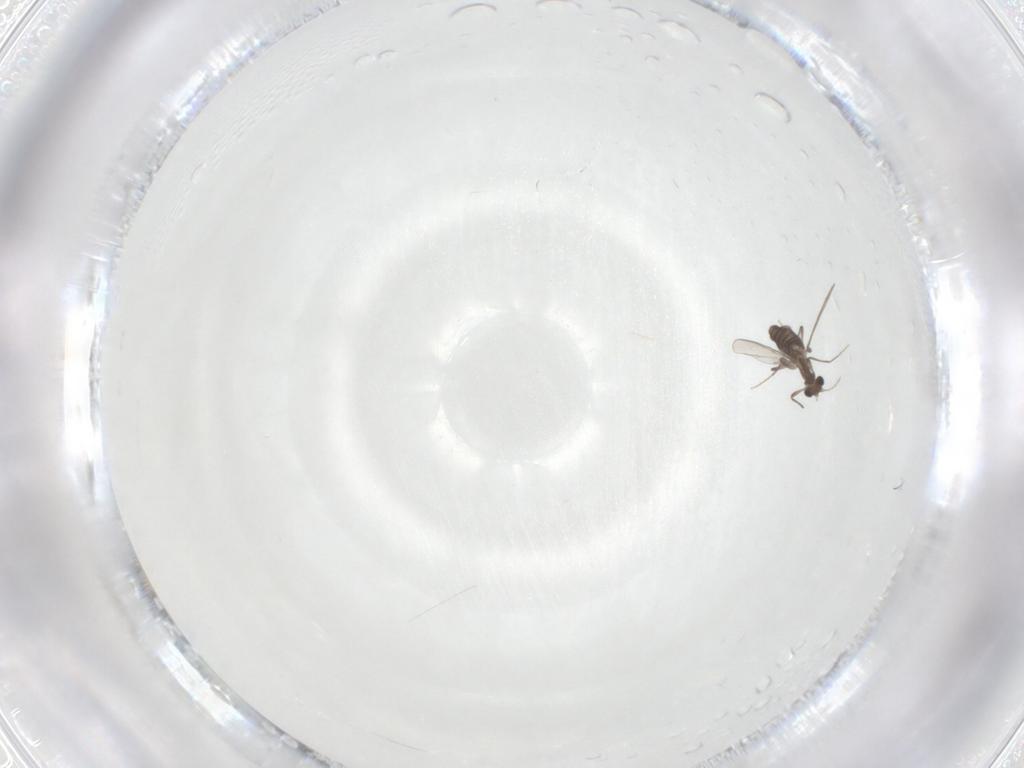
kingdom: Animalia
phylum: Arthropoda
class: Insecta
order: Diptera
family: Chironomidae
